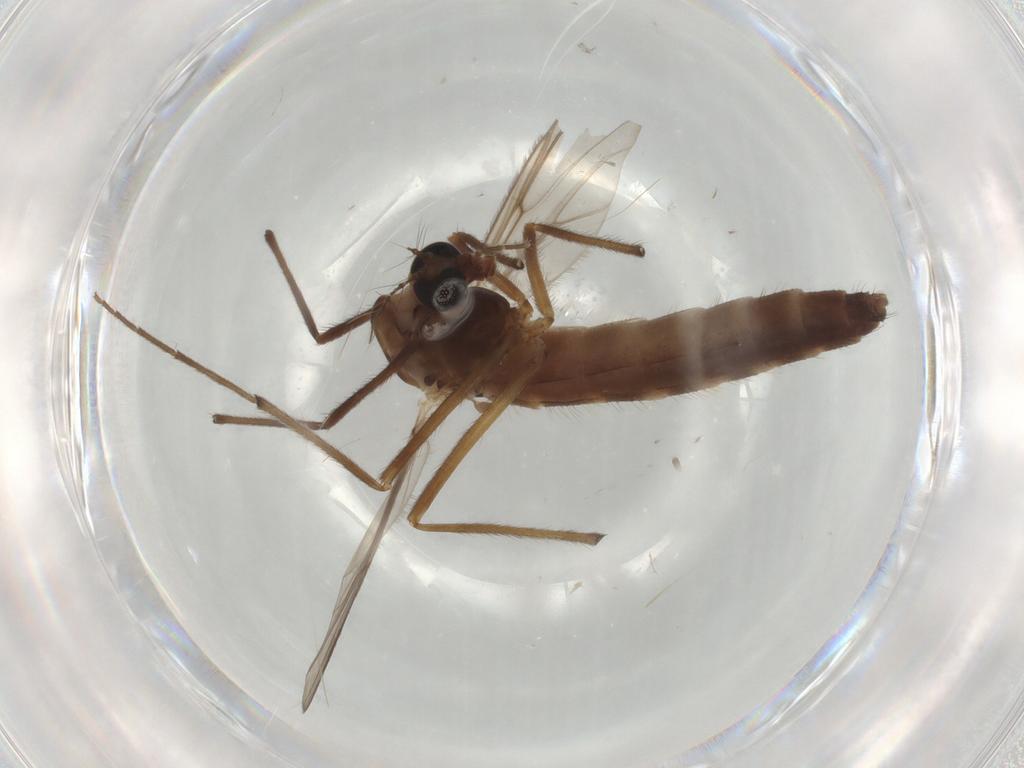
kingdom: Animalia
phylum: Arthropoda
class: Insecta
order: Diptera
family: Chironomidae
